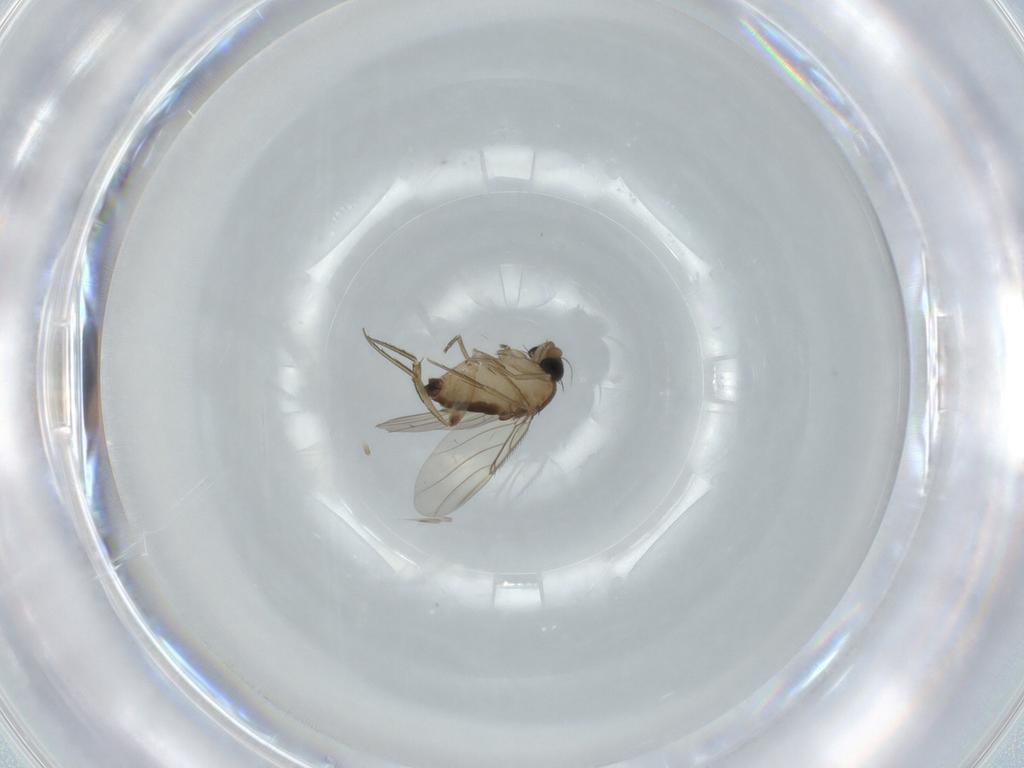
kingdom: Animalia
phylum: Arthropoda
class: Insecta
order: Diptera
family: Phoridae
